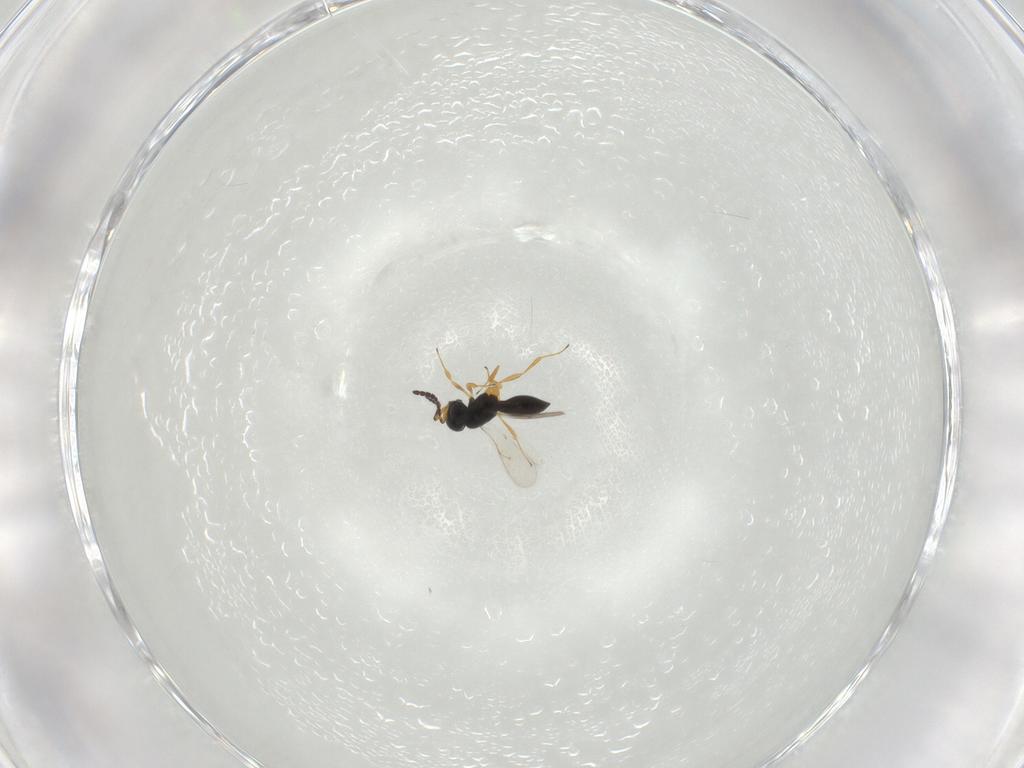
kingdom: Animalia
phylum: Arthropoda
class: Insecta
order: Hymenoptera
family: Scelionidae
